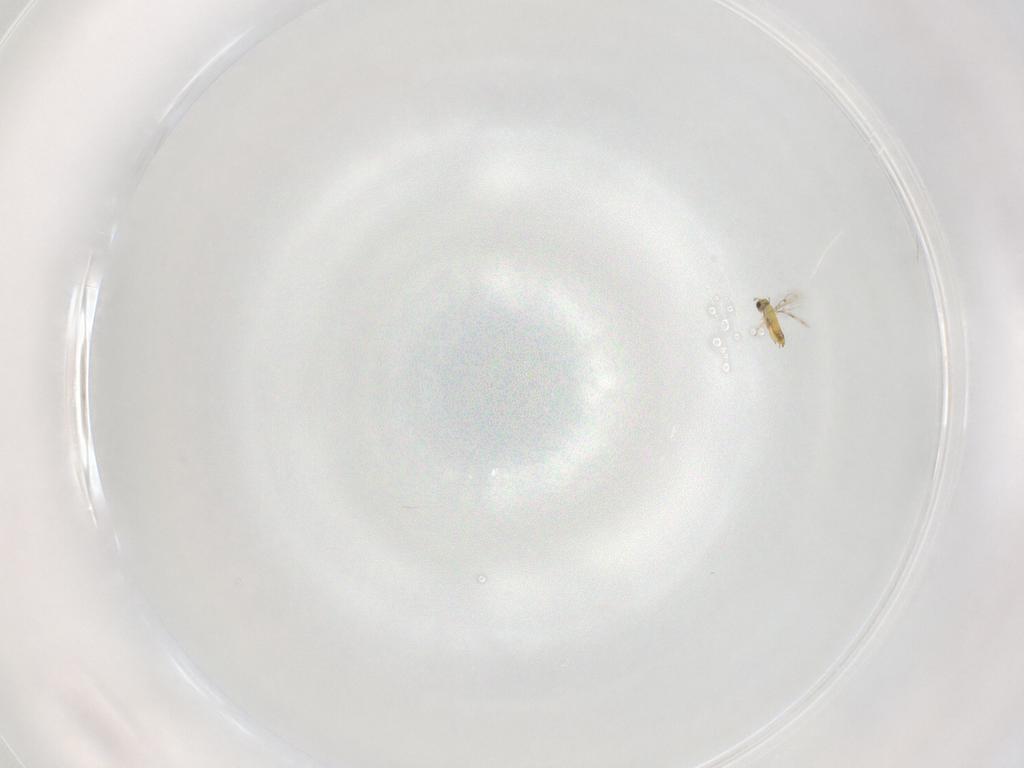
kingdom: Animalia
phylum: Arthropoda
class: Insecta
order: Hymenoptera
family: Trichogrammatidae
